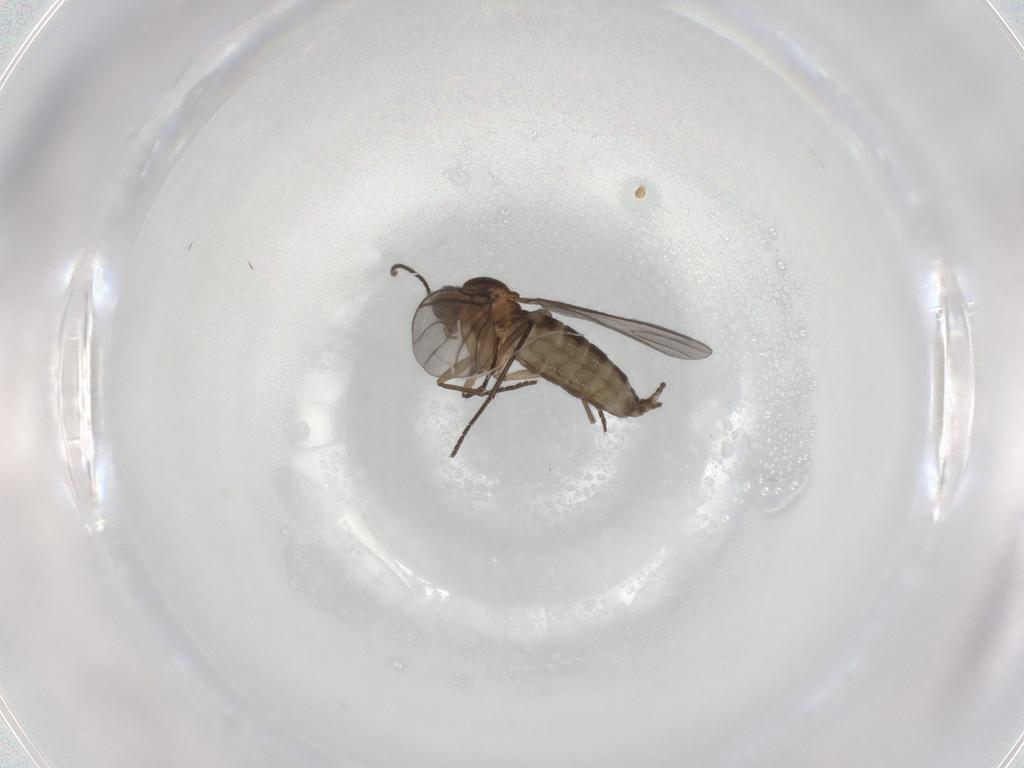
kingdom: Animalia
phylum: Arthropoda
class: Insecta
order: Diptera
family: Sciaridae
